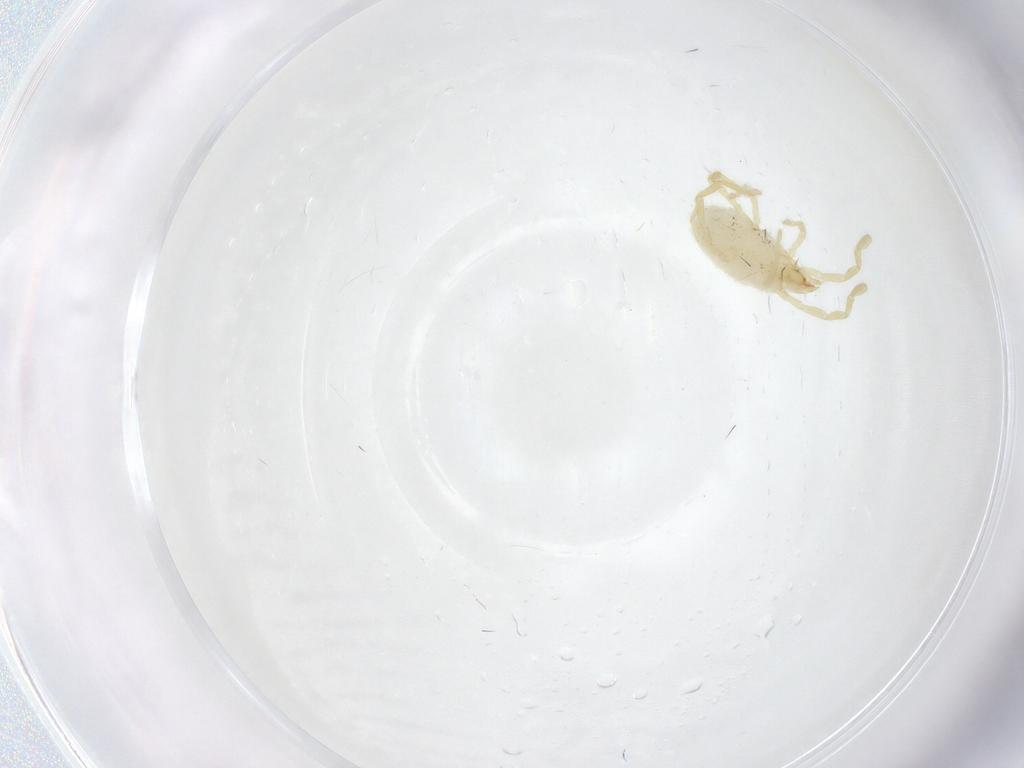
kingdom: Animalia
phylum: Arthropoda
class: Arachnida
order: Trombidiformes
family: Erythraeidae
